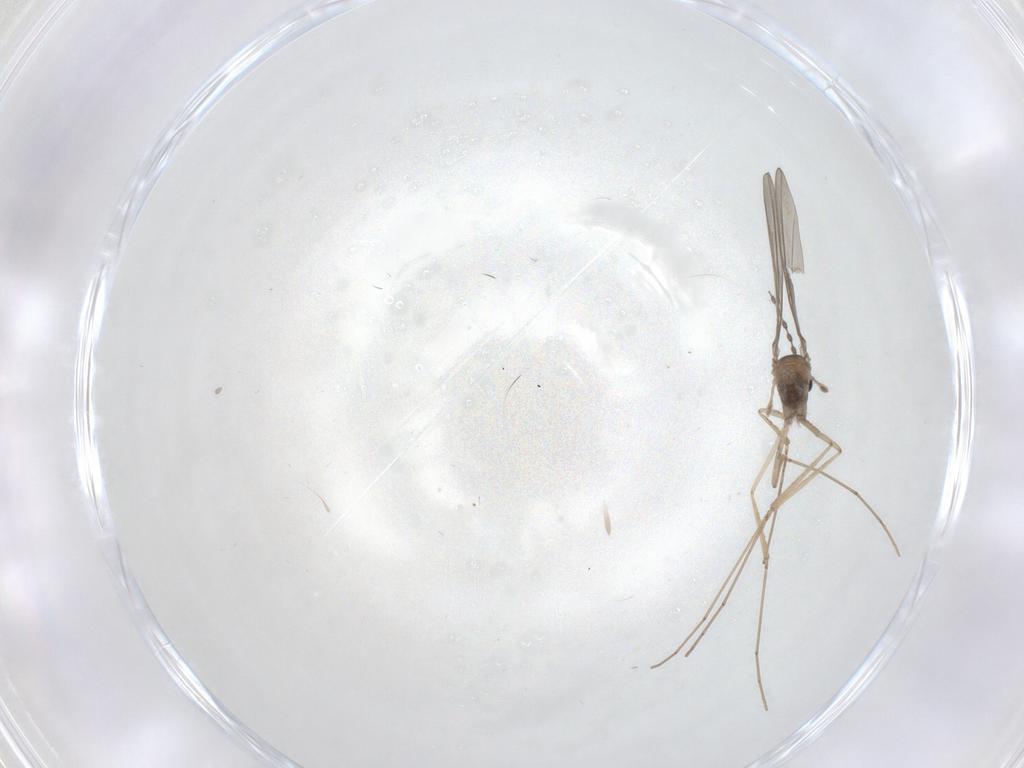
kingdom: Animalia
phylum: Arthropoda
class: Insecta
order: Diptera
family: Cecidomyiidae
